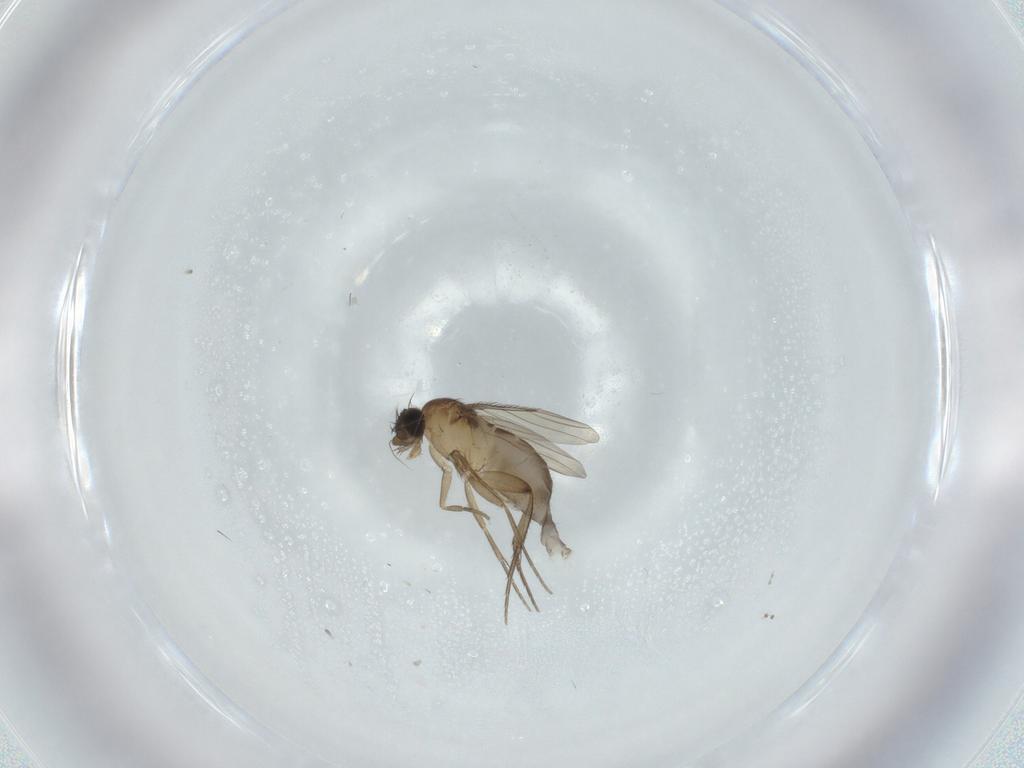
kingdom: Animalia
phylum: Arthropoda
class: Insecta
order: Diptera
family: Phoridae
